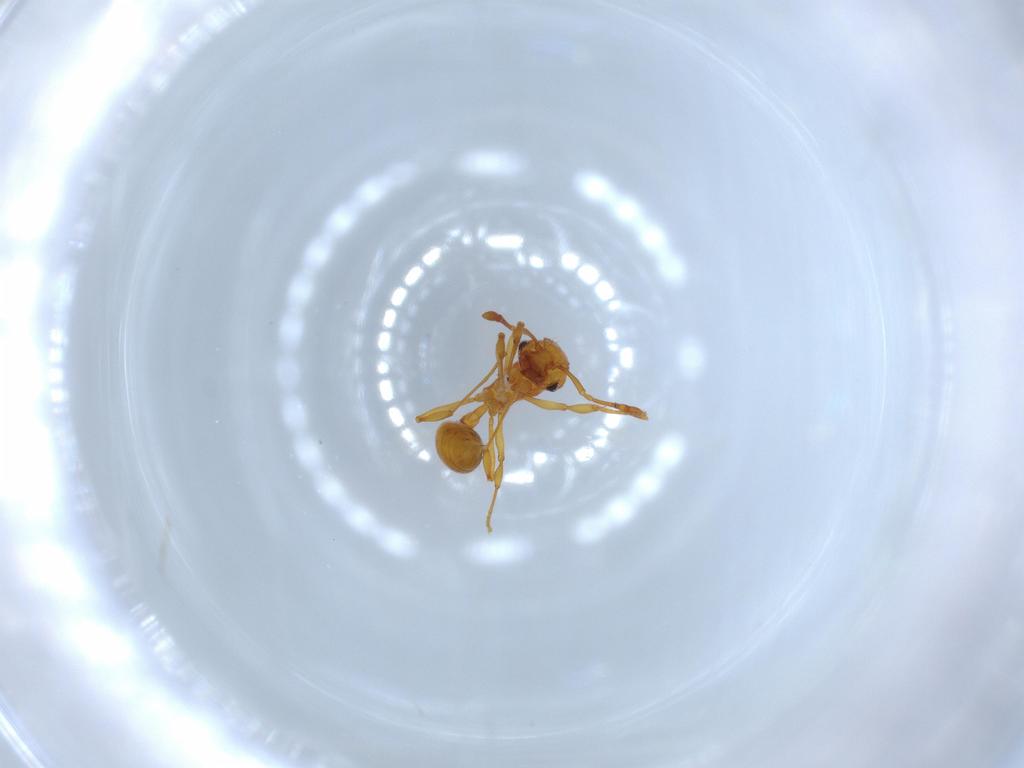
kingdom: Animalia
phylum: Arthropoda
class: Insecta
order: Hymenoptera
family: Formicidae
